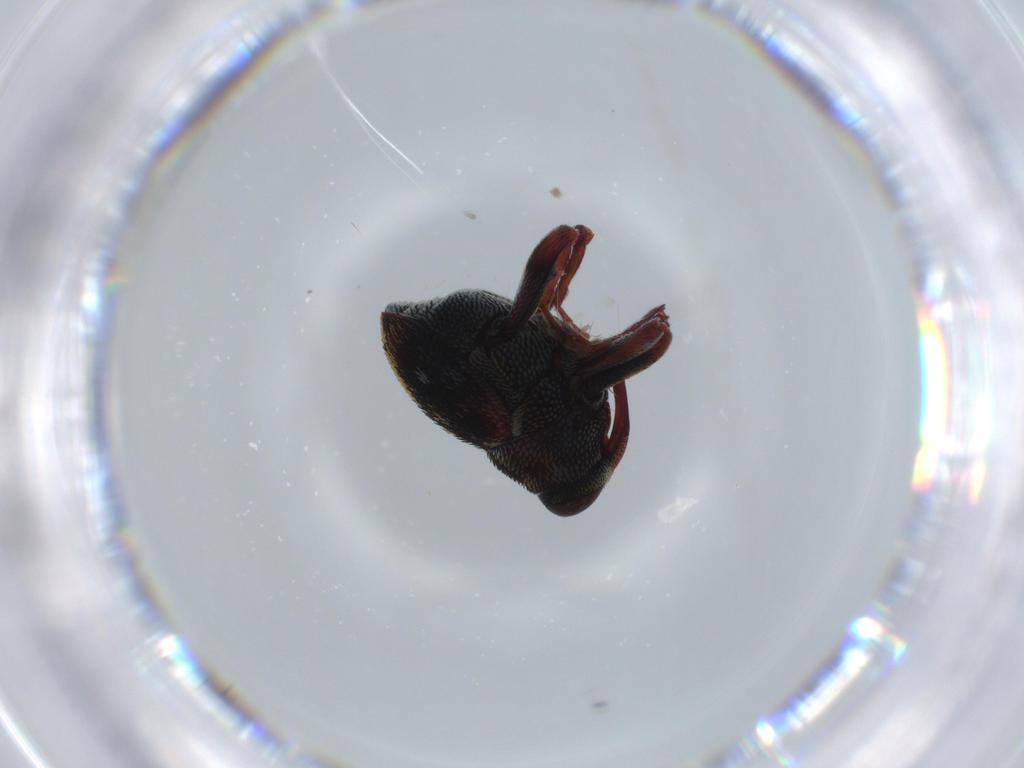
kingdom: Animalia
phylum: Arthropoda
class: Insecta
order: Coleoptera
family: Curculionidae
